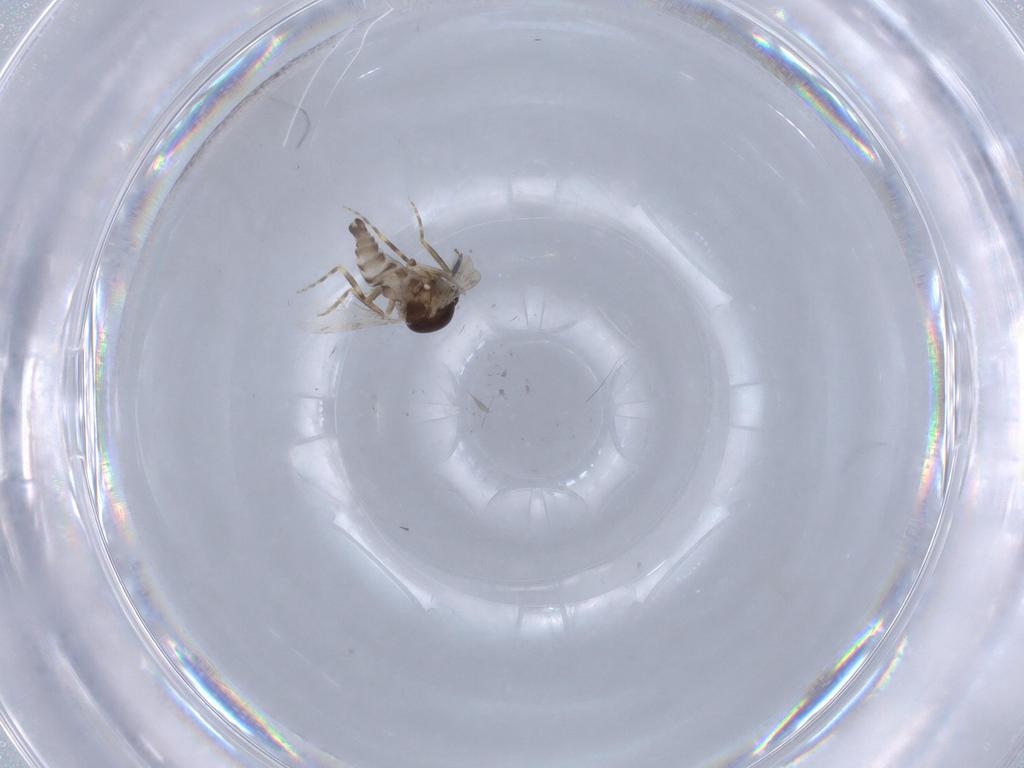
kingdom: Animalia
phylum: Arthropoda
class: Insecta
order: Diptera
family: Ceratopogonidae
